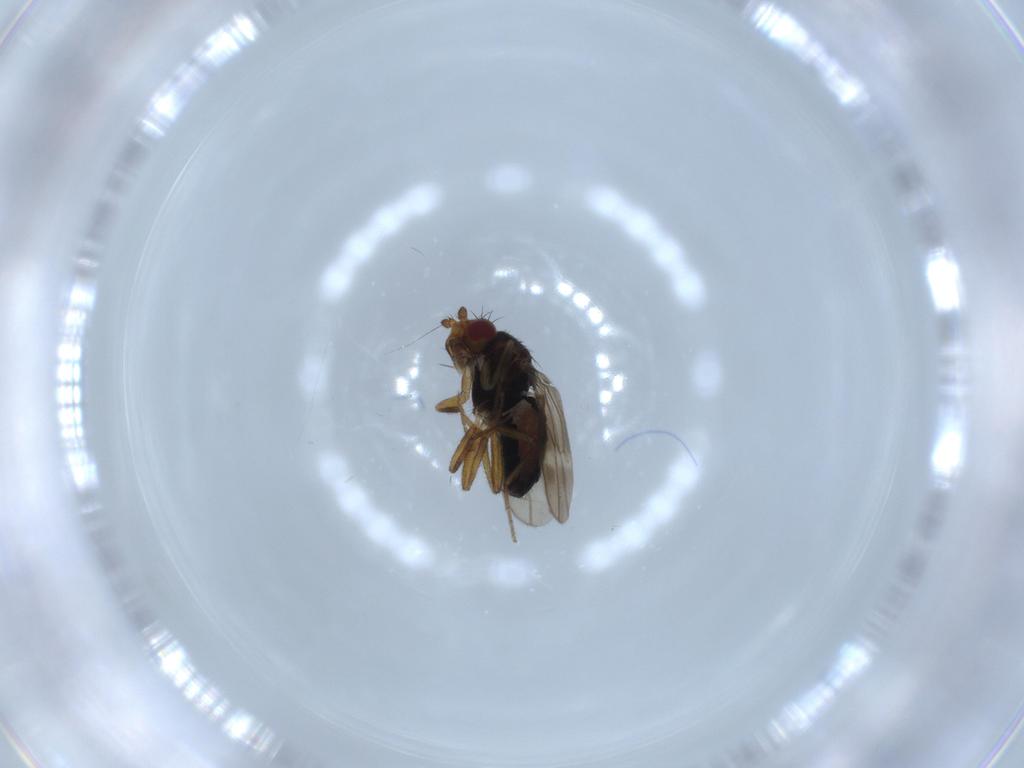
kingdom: Animalia
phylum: Arthropoda
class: Insecta
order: Diptera
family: Sphaeroceridae
